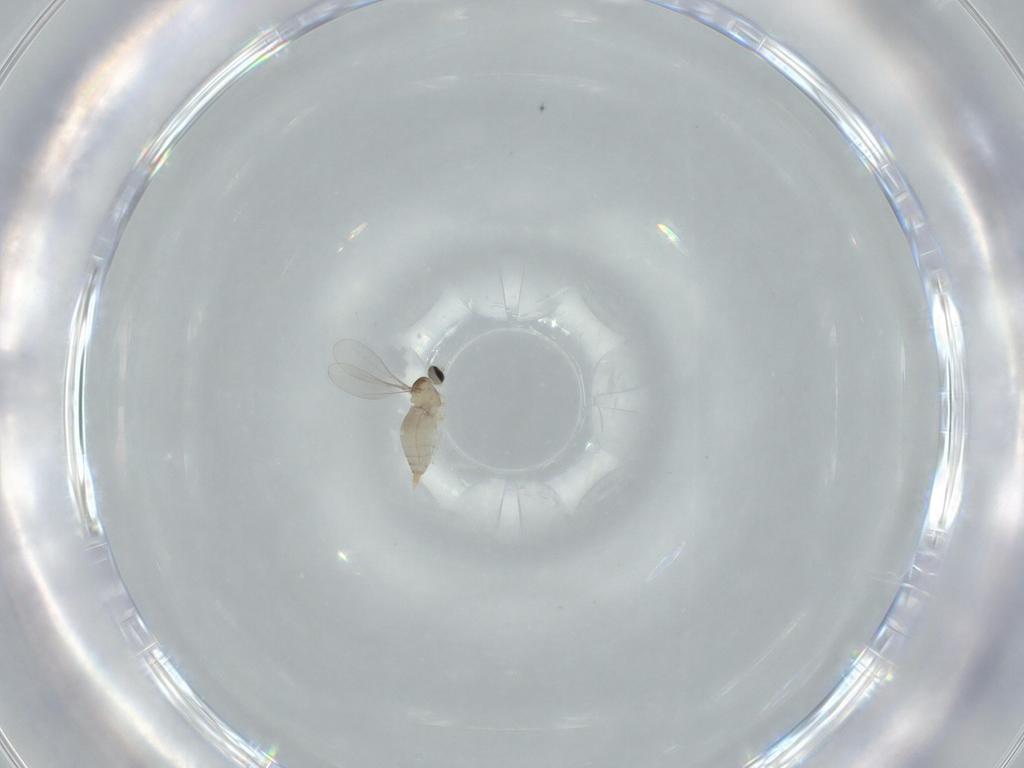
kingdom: Animalia
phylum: Arthropoda
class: Insecta
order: Diptera
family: Cecidomyiidae
